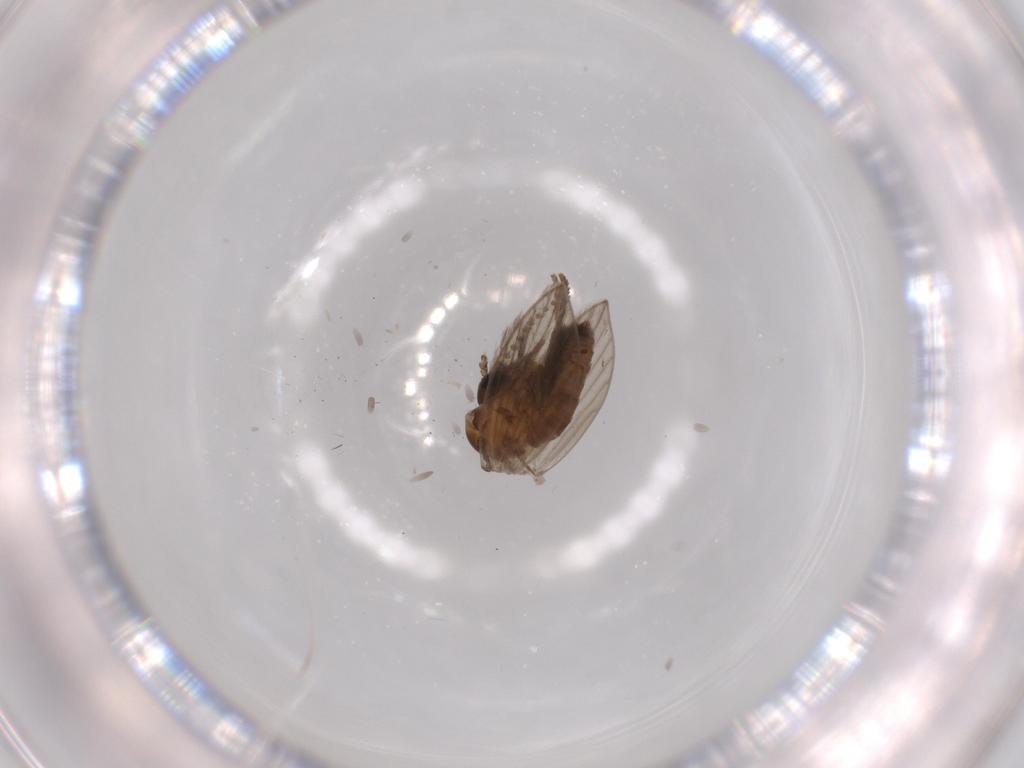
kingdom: Animalia
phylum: Arthropoda
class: Insecta
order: Diptera
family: Psychodidae
